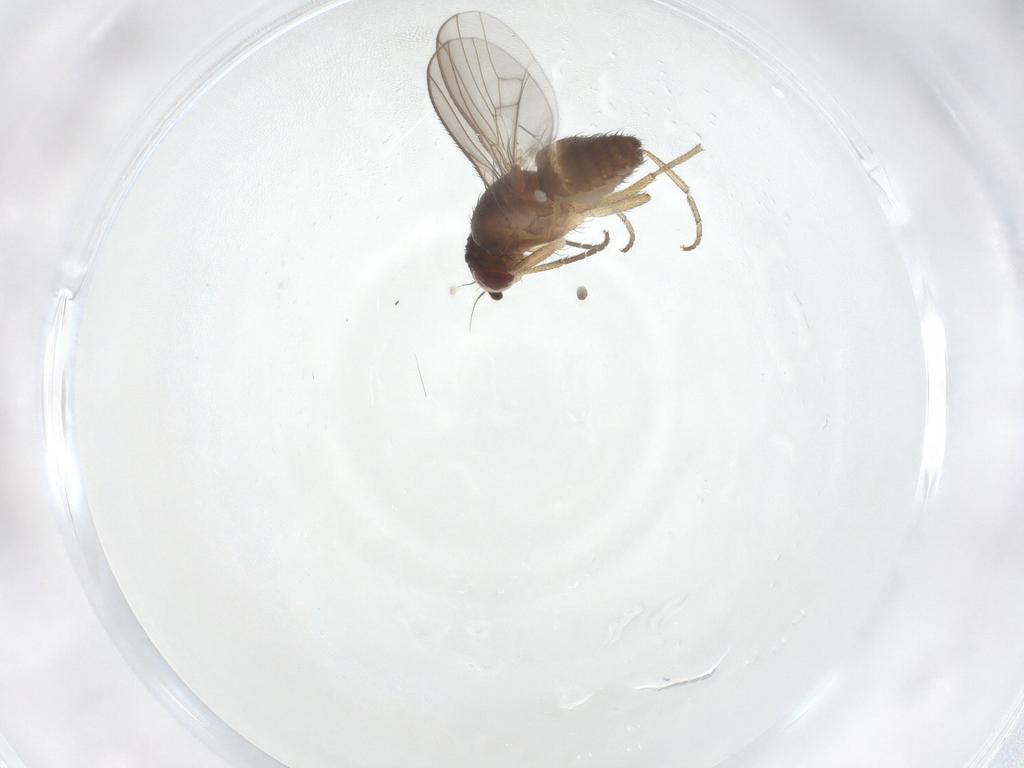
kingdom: Animalia
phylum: Arthropoda
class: Insecta
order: Diptera
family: Heleomyzidae
